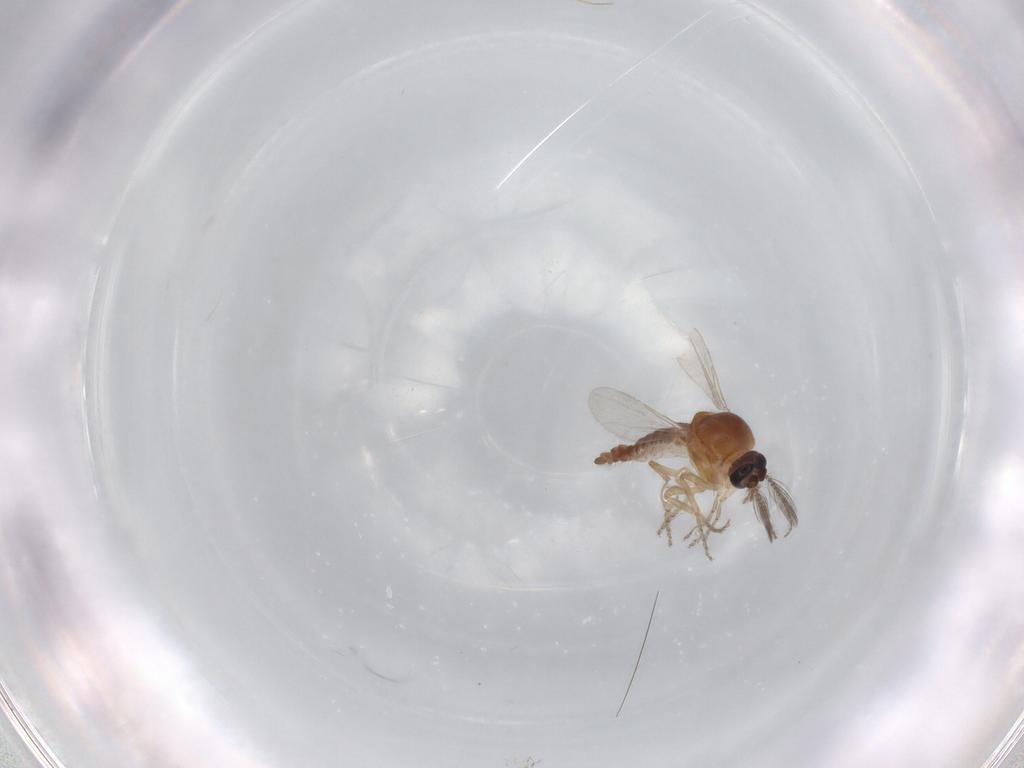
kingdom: Animalia
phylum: Arthropoda
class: Insecta
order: Diptera
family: Ceratopogonidae
